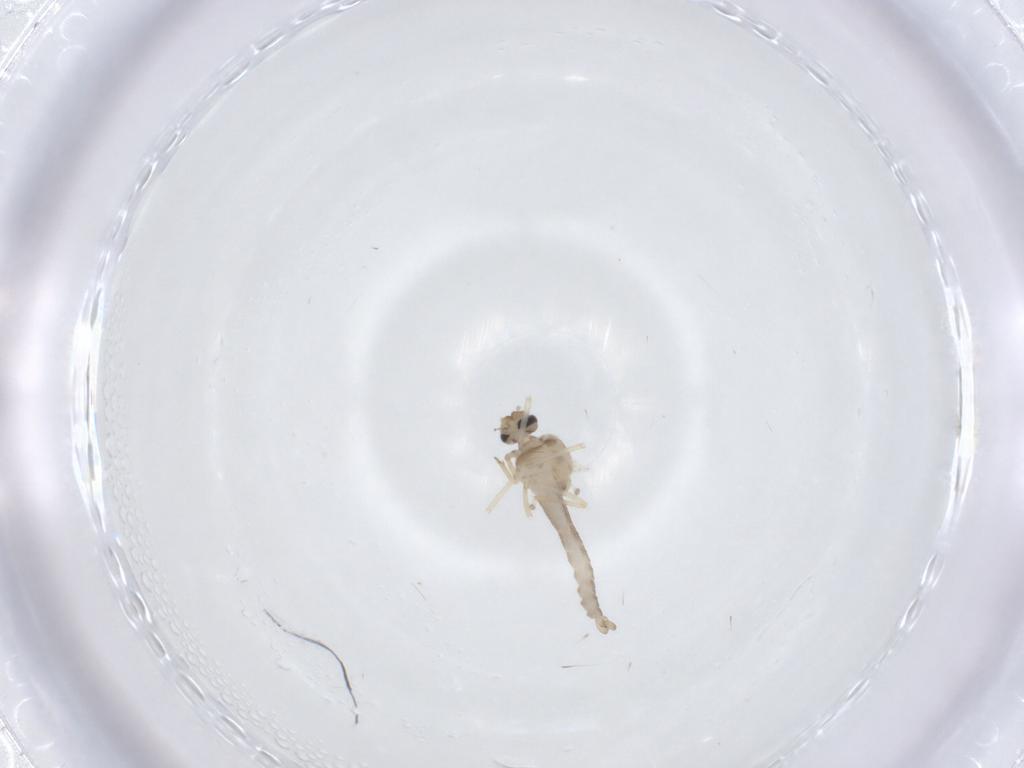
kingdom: Animalia
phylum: Arthropoda
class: Insecta
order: Diptera
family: Ceratopogonidae
